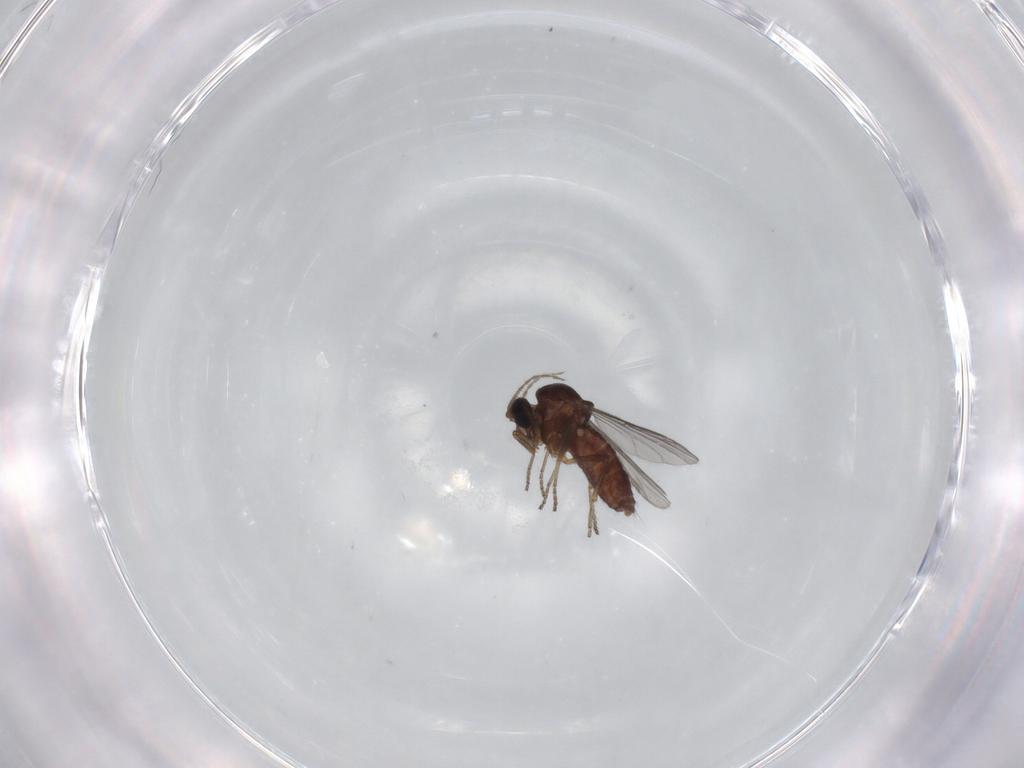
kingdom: Animalia
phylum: Arthropoda
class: Insecta
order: Diptera
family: Ceratopogonidae
